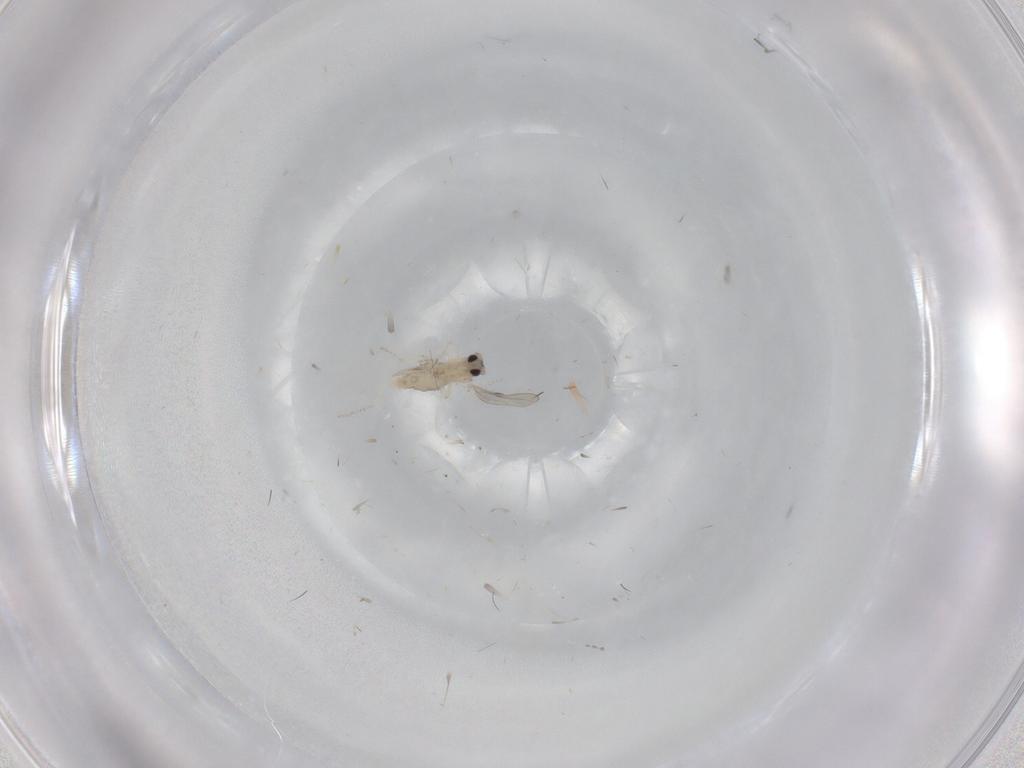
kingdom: Animalia
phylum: Arthropoda
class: Insecta
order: Diptera
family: Cecidomyiidae
